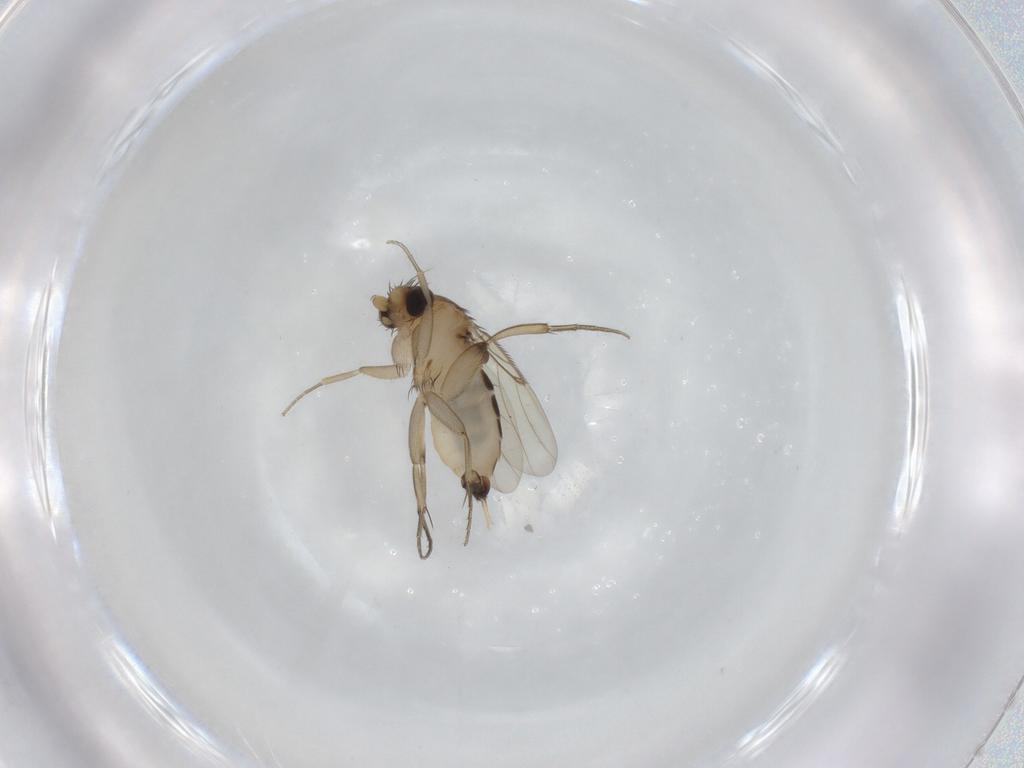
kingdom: Animalia
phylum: Arthropoda
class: Insecta
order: Diptera
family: Phoridae
